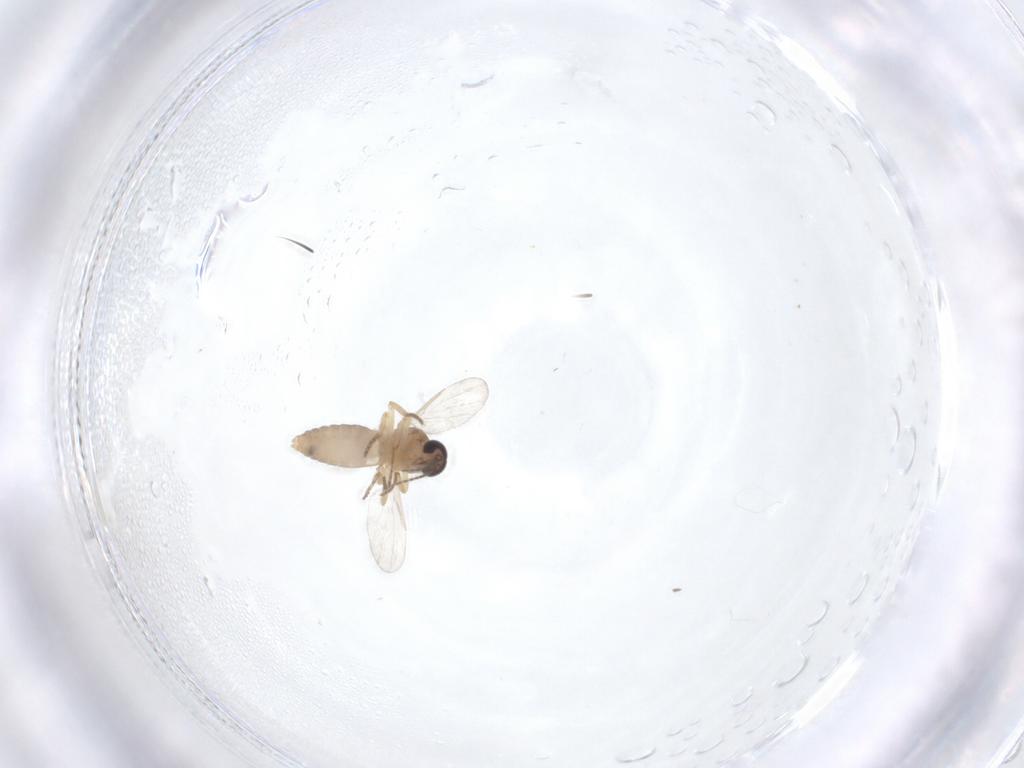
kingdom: Animalia
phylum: Arthropoda
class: Insecta
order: Diptera
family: Ceratopogonidae
